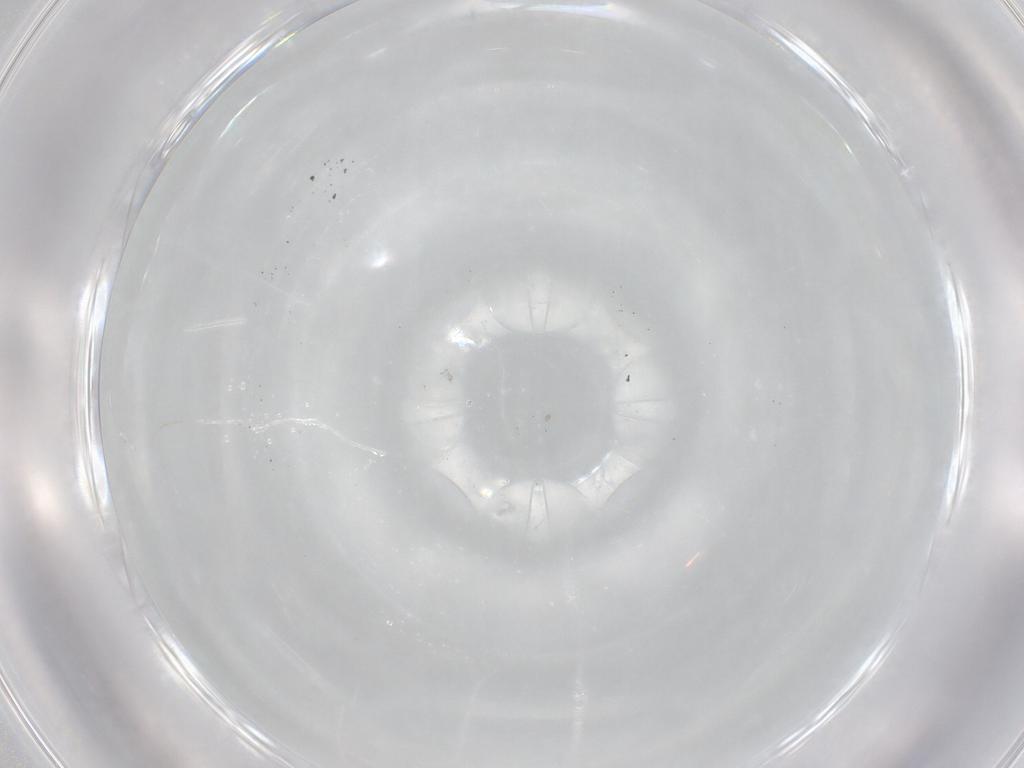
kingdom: Animalia
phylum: Arthropoda
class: Insecta
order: Diptera
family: Cecidomyiidae
